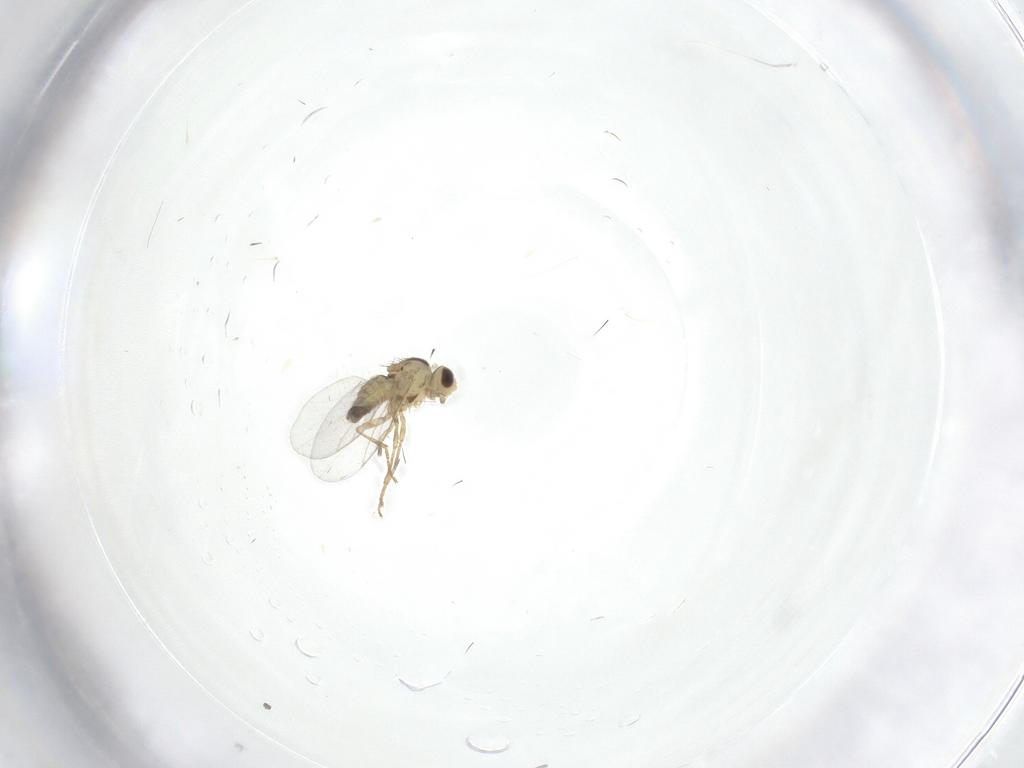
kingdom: Animalia
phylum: Arthropoda
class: Insecta
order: Diptera
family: Agromyzidae
